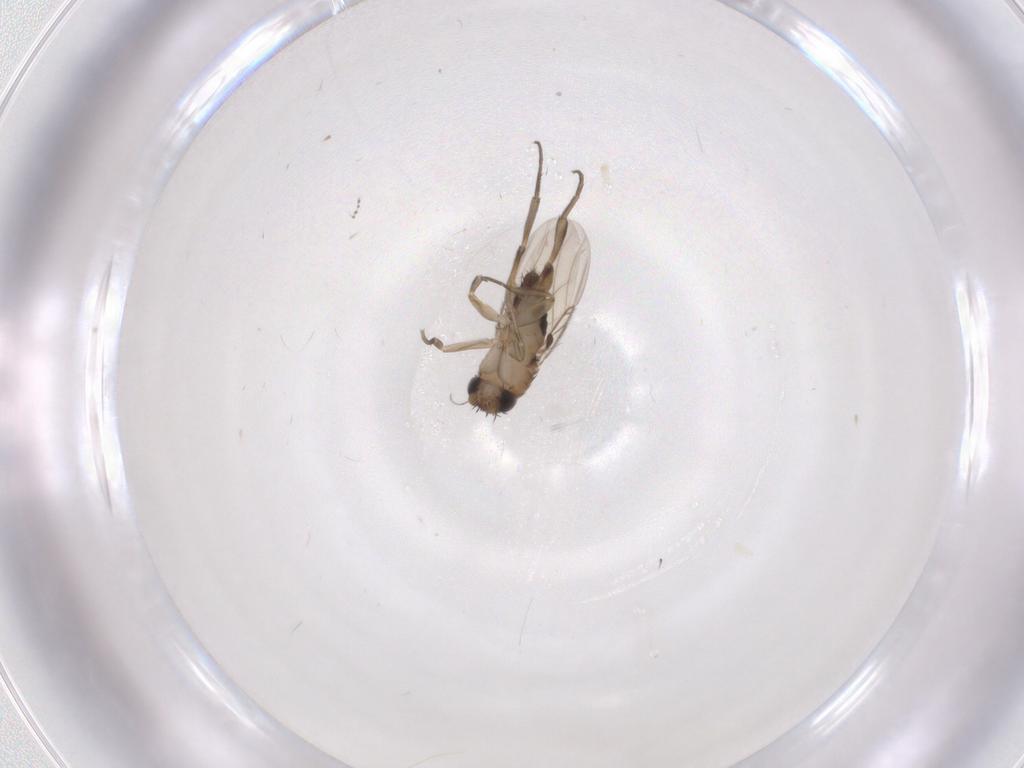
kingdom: Animalia
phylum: Arthropoda
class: Insecta
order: Diptera
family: Phoridae
